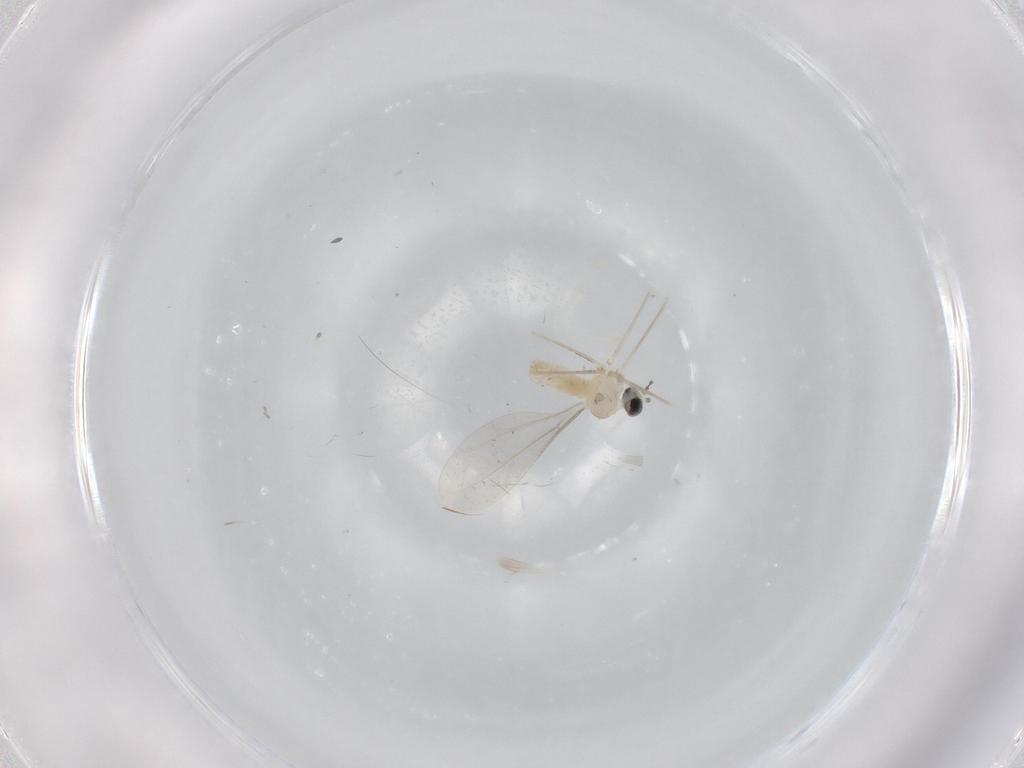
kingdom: Animalia
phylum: Arthropoda
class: Insecta
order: Diptera
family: Cecidomyiidae
